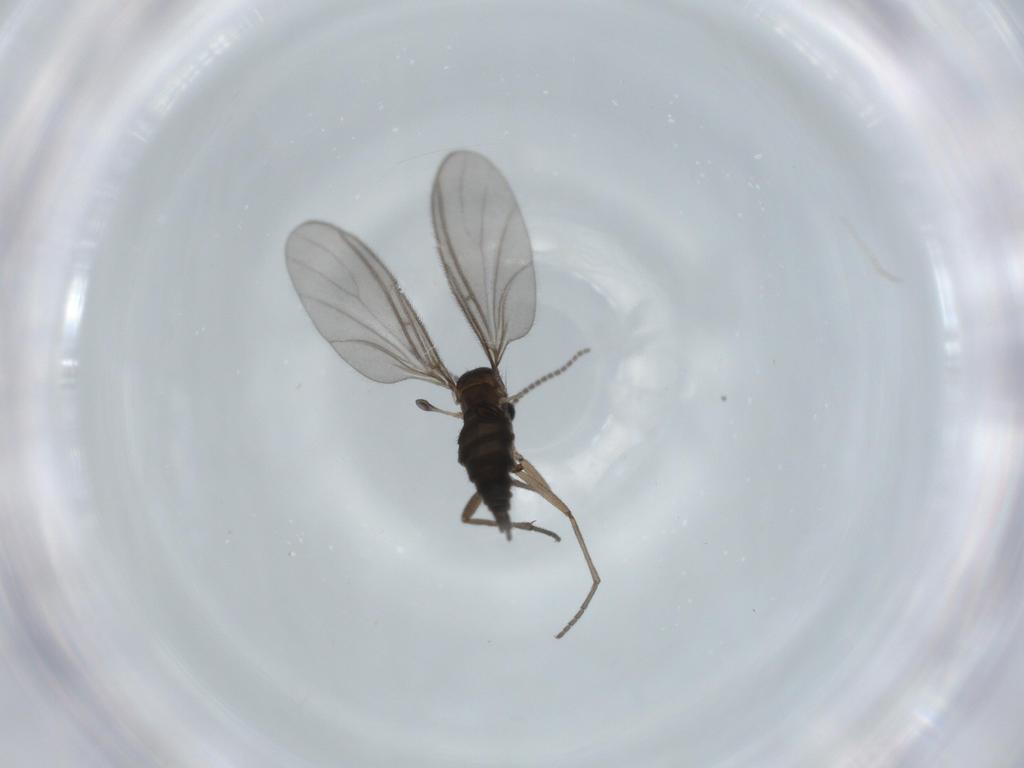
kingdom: Animalia
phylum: Arthropoda
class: Insecta
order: Diptera
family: Sciaridae
